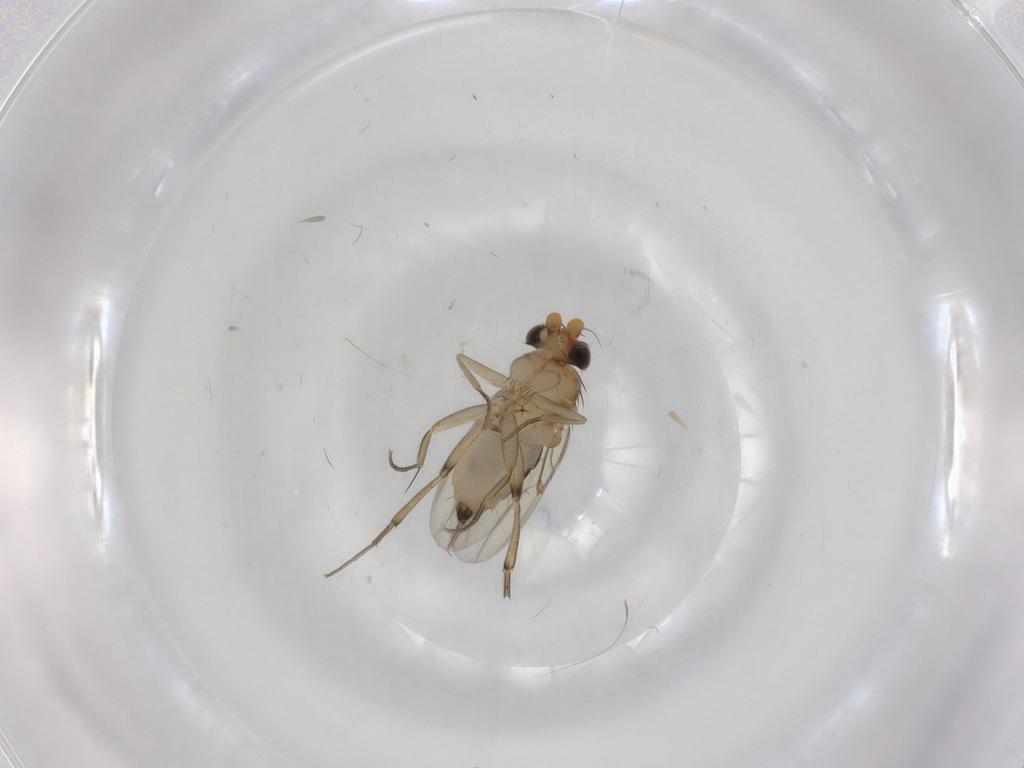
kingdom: Animalia
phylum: Arthropoda
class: Insecta
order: Diptera
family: Phoridae
